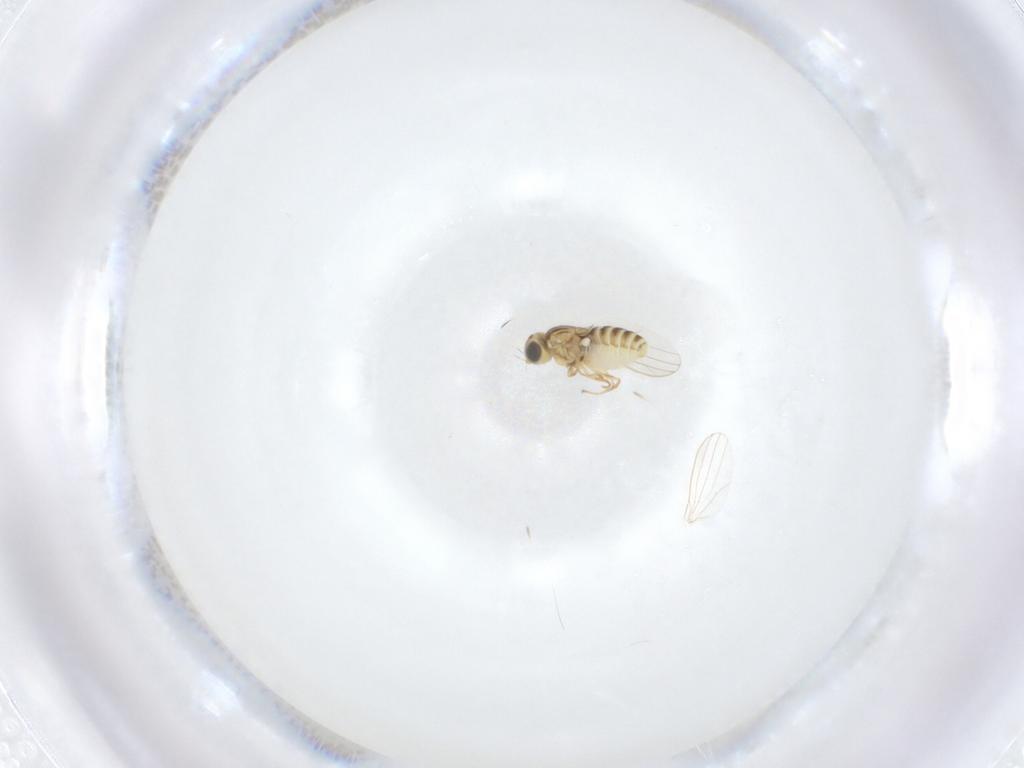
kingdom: Animalia
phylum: Arthropoda
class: Insecta
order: Diptera
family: Chyromyidae
